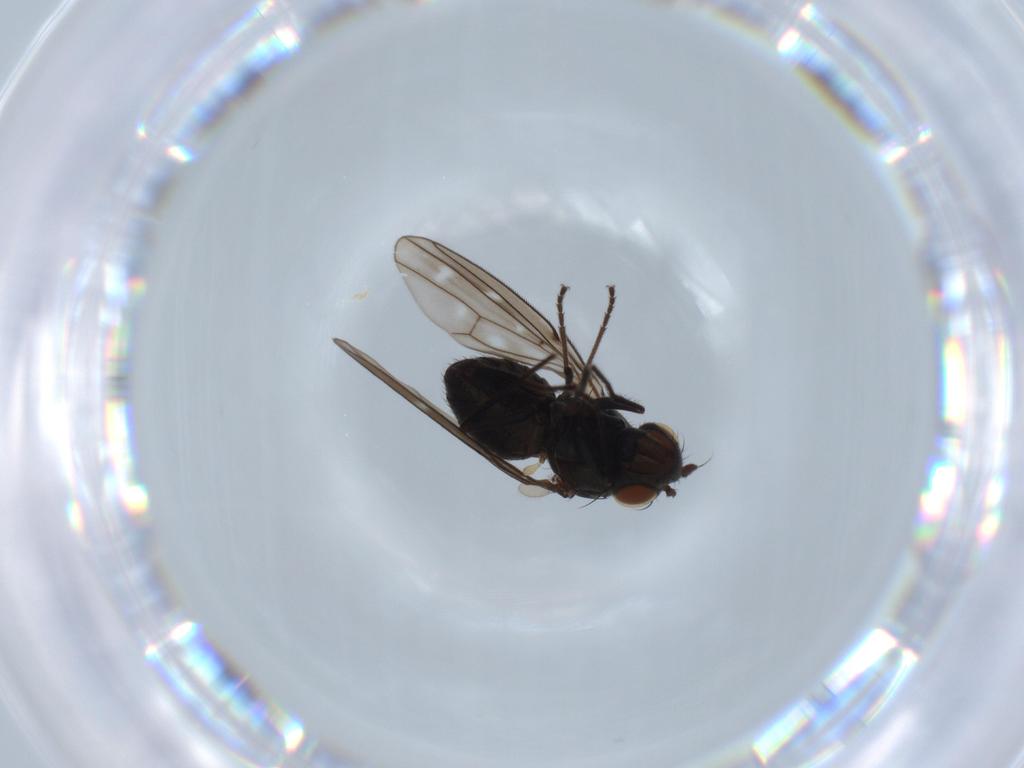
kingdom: Animalia
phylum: Arthropoda
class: Insecta
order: Diptera
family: Ephydridae
